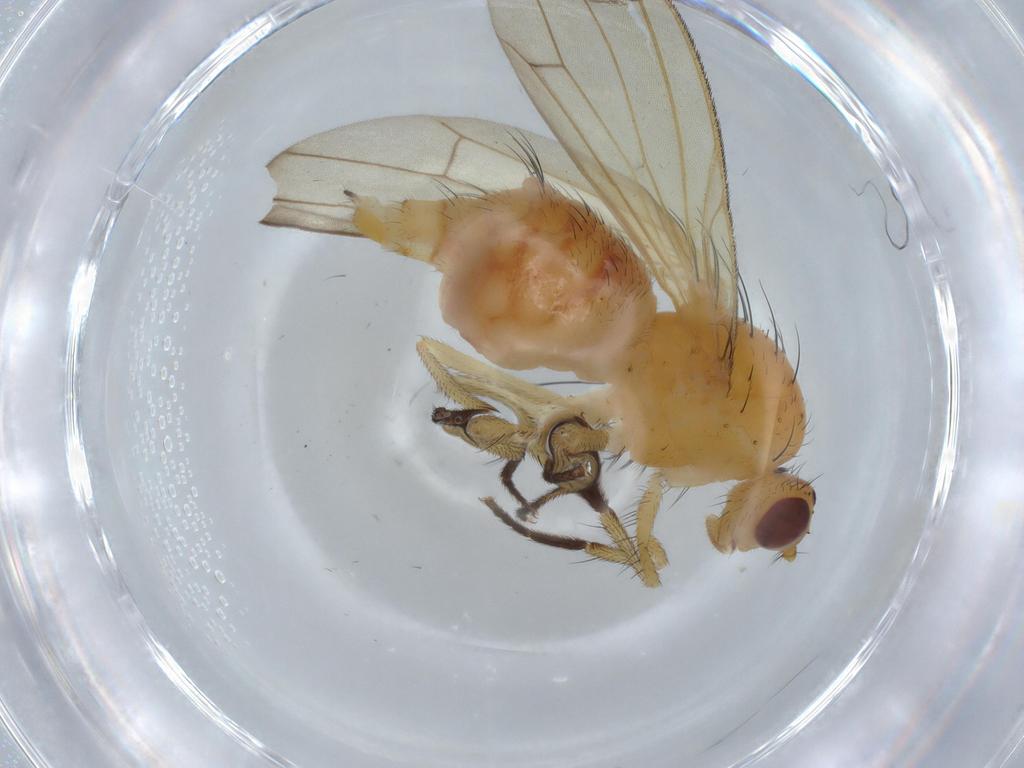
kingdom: Animalia
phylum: Arthropoda
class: Insecta
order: Diptera
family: Lauxaniidae
